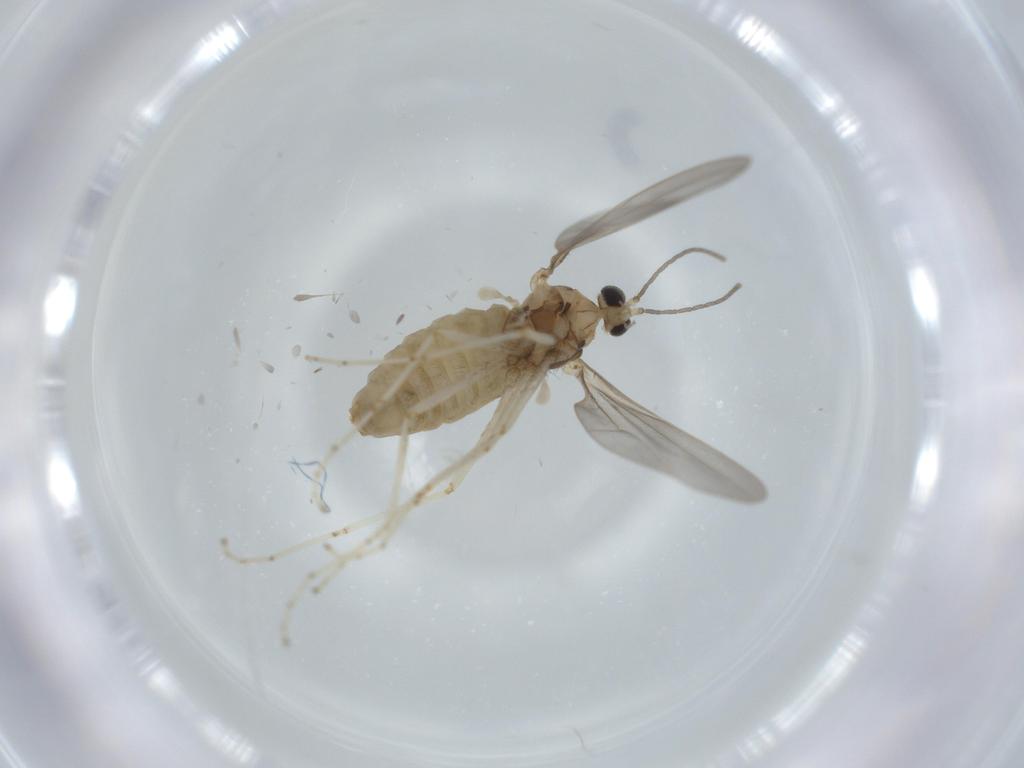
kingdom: Animalia
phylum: Arthropoda
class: Insecta
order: Diptera
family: Cecidomyiidae
